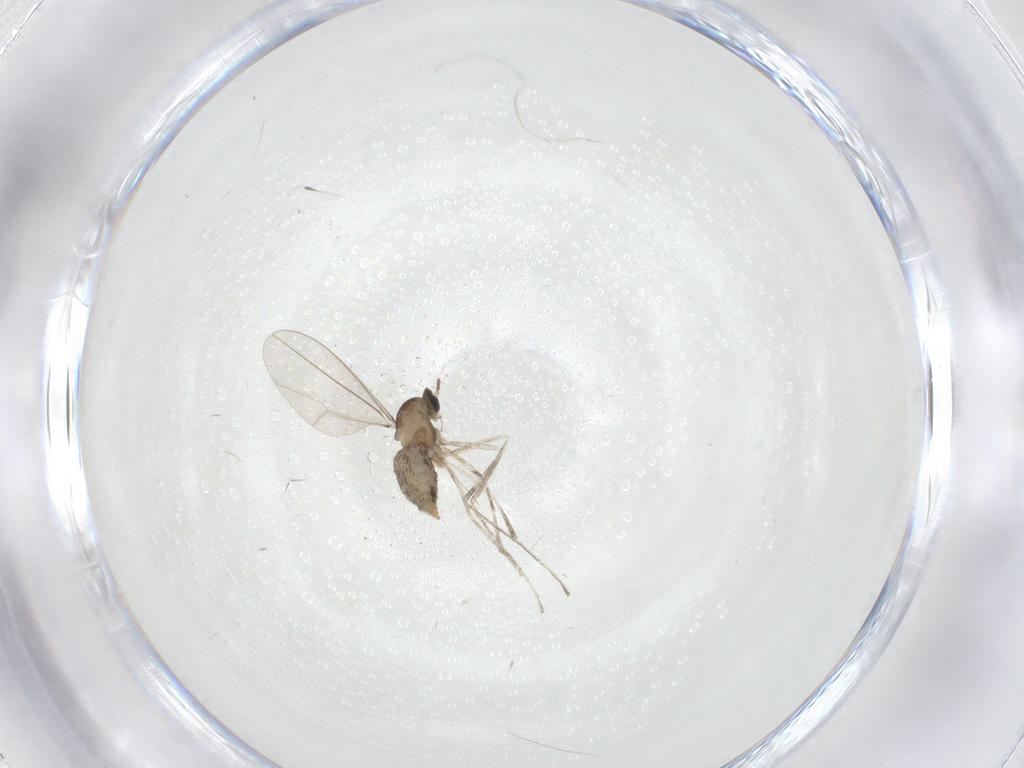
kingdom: Animalia
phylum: Arthropoda
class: Insecta
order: Diptera
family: Cecidomyiidae
